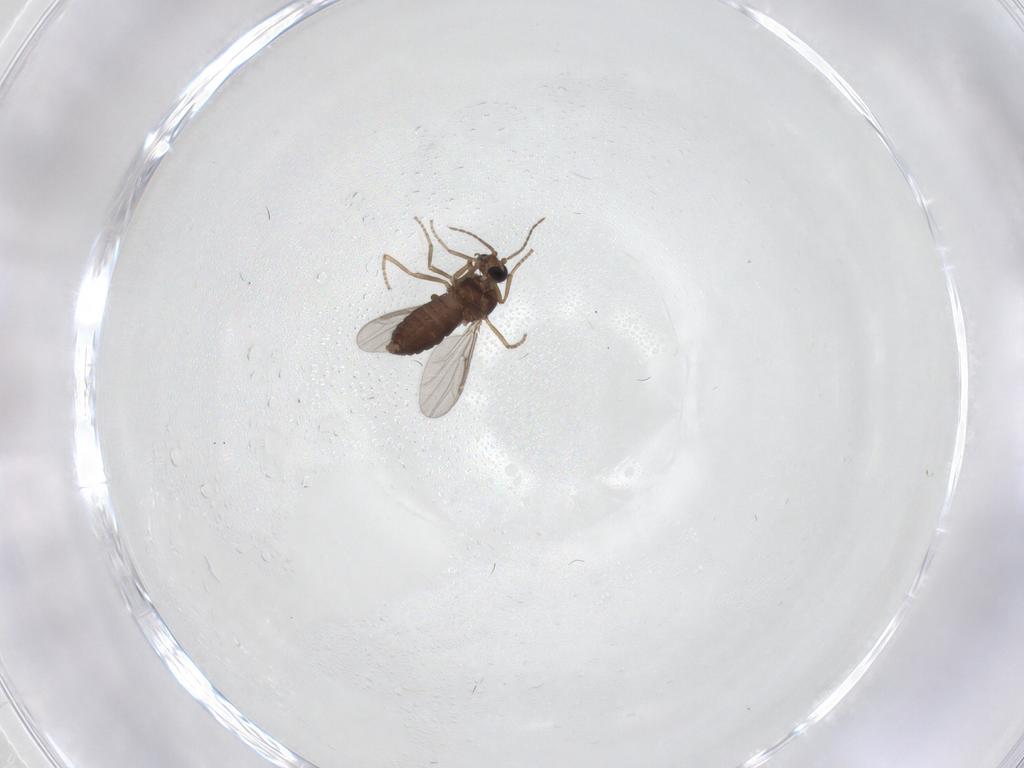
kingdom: Animalia
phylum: Arthropoda
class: Insecta
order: Diptera
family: Ceratopogonidae
